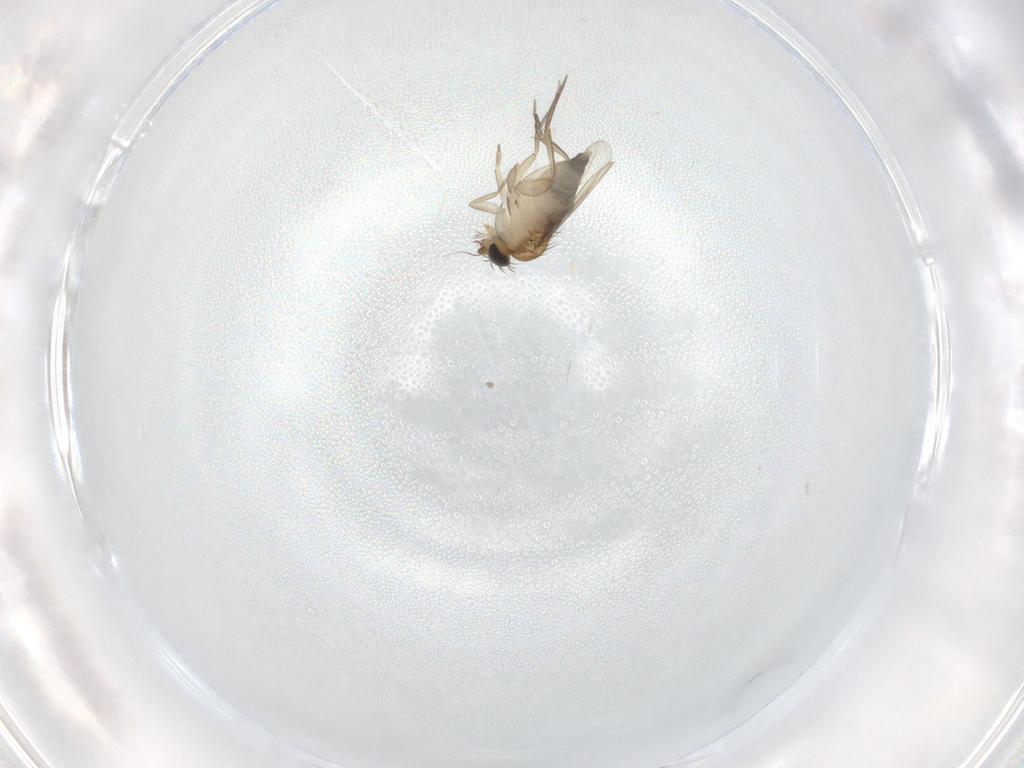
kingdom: Animalia
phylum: Arthropoda
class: Insecta
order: Diptera
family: Phoridae
